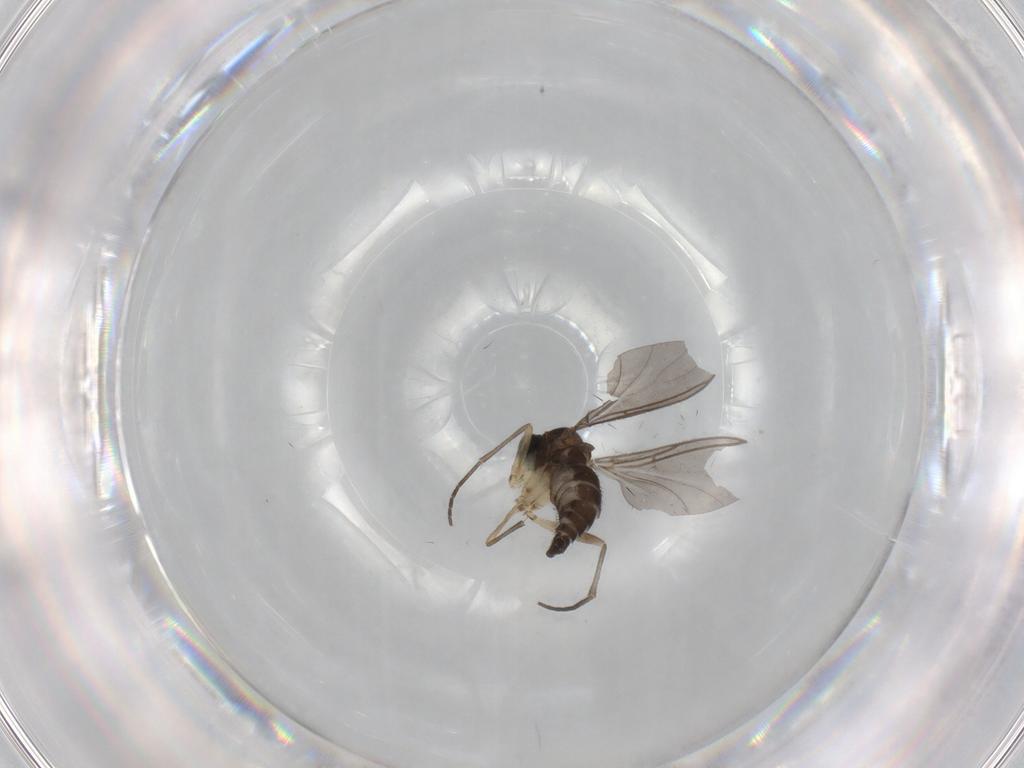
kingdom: Animalia
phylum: Arthropoda
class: Insecta
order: Diptera
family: Sciaridae
